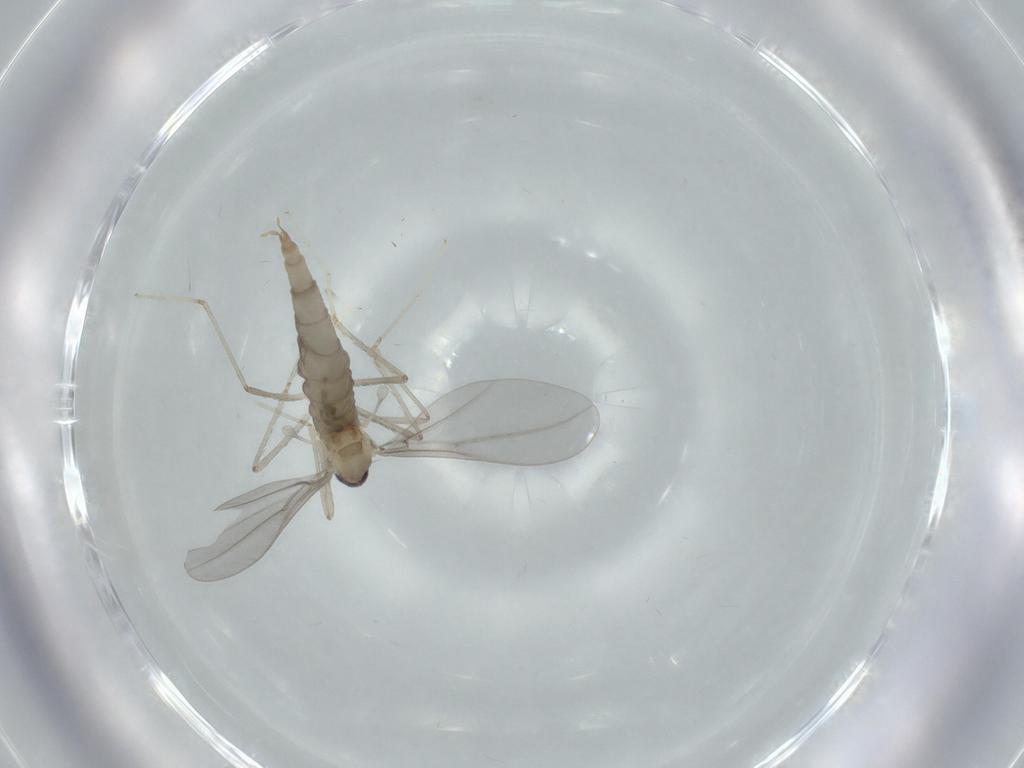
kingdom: Animalia
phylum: Arthropoda
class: Insecta
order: Diptera
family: Cecidomyiidae
